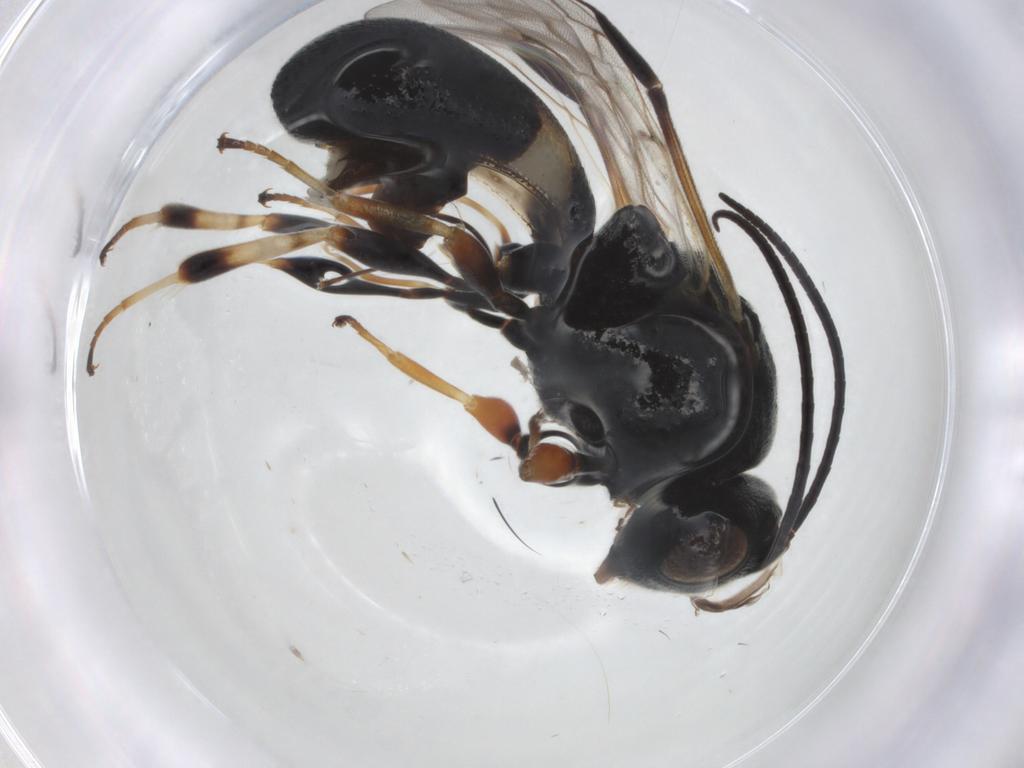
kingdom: Animalia
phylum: Arthropoda
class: Insecta
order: Hymenoptera
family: Braconidae
